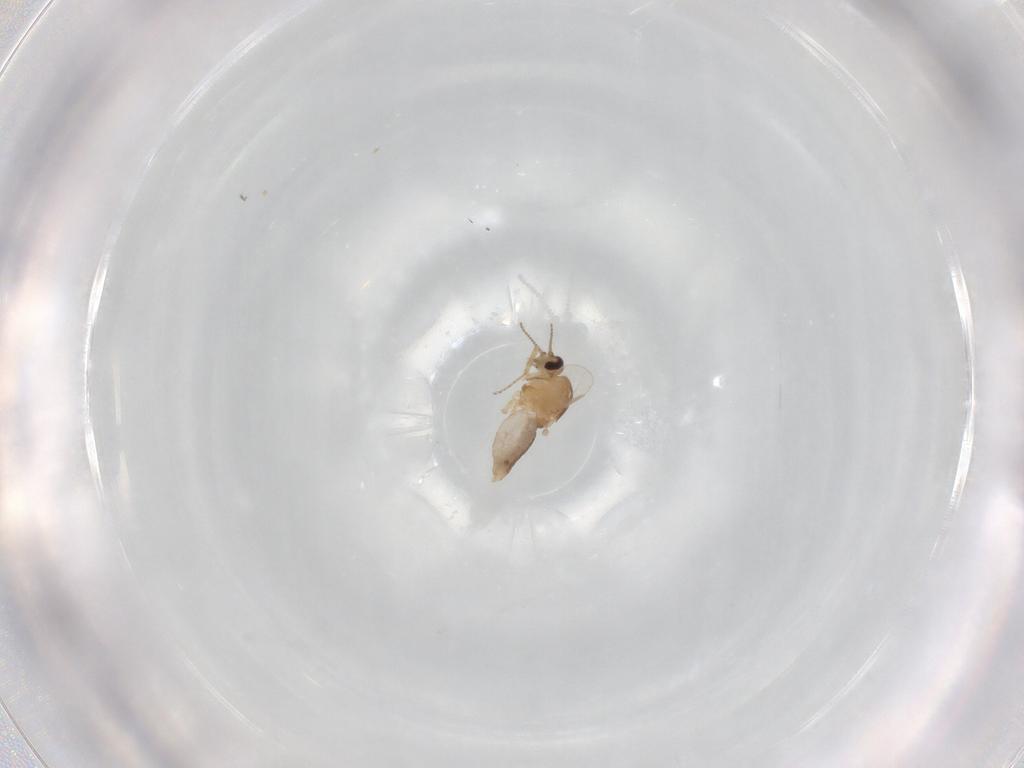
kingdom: Animalia
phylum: Arthropoda
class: Insecta
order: Diptera
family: Ceratopogonidae
